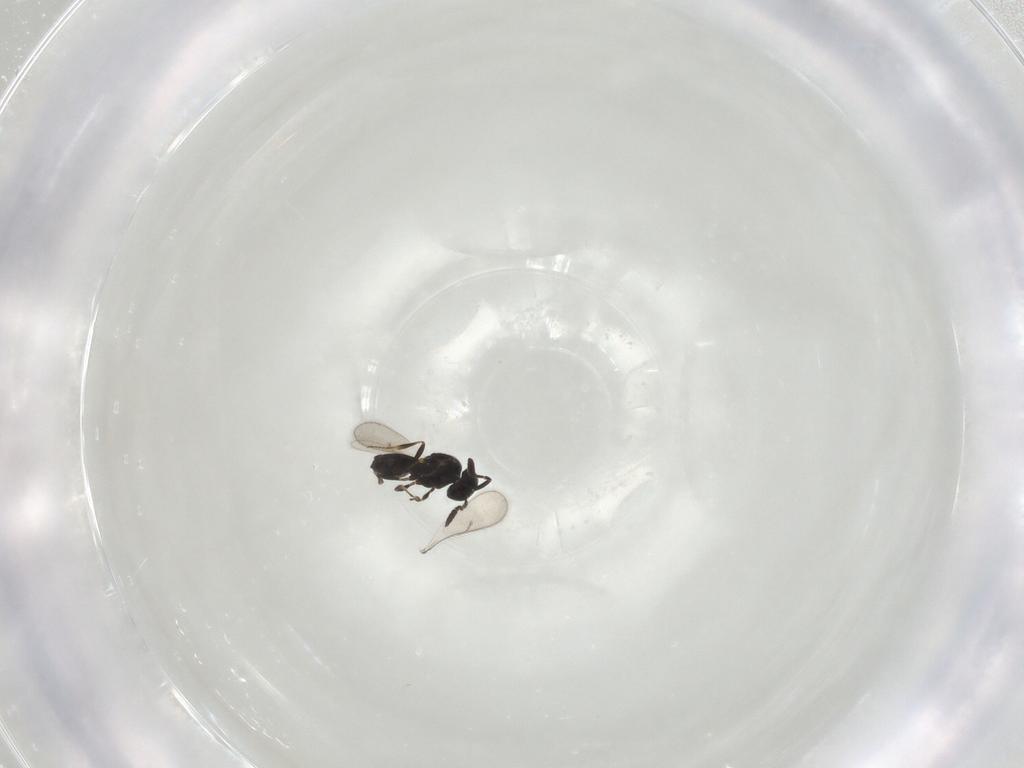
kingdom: Animalia
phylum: Arthropoda
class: Insecta
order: Hymenoptera
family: Scelionidae
